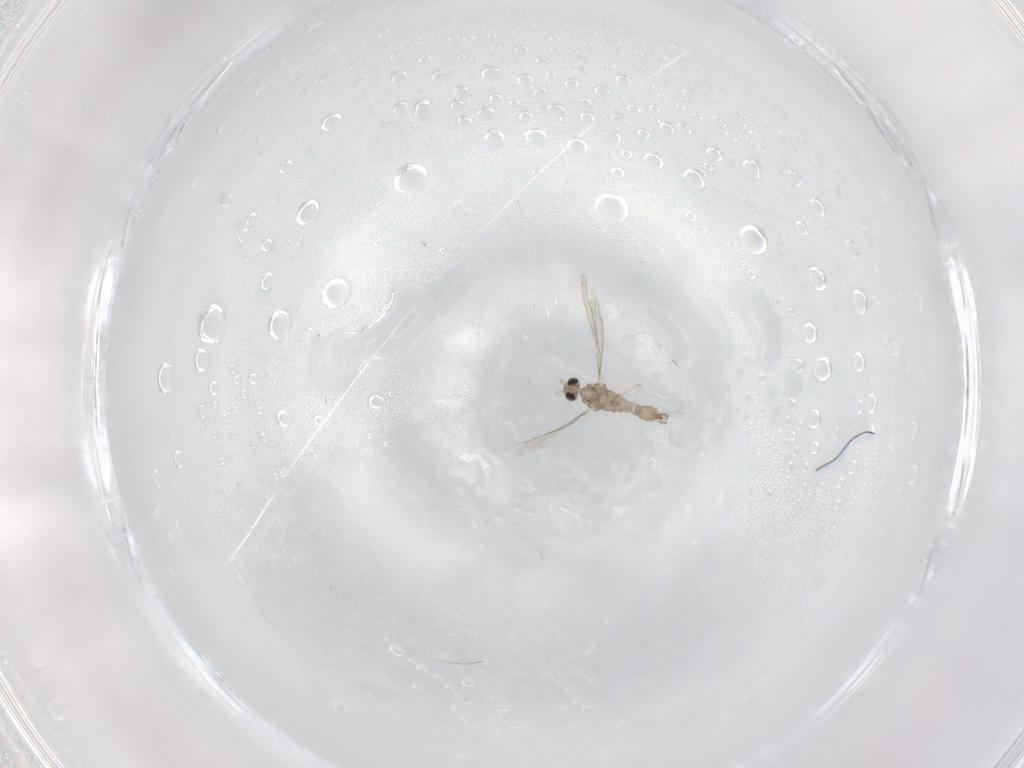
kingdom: Animalia
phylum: Arthropoda
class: Insecta
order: Diptera
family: Cecidomyiidae
